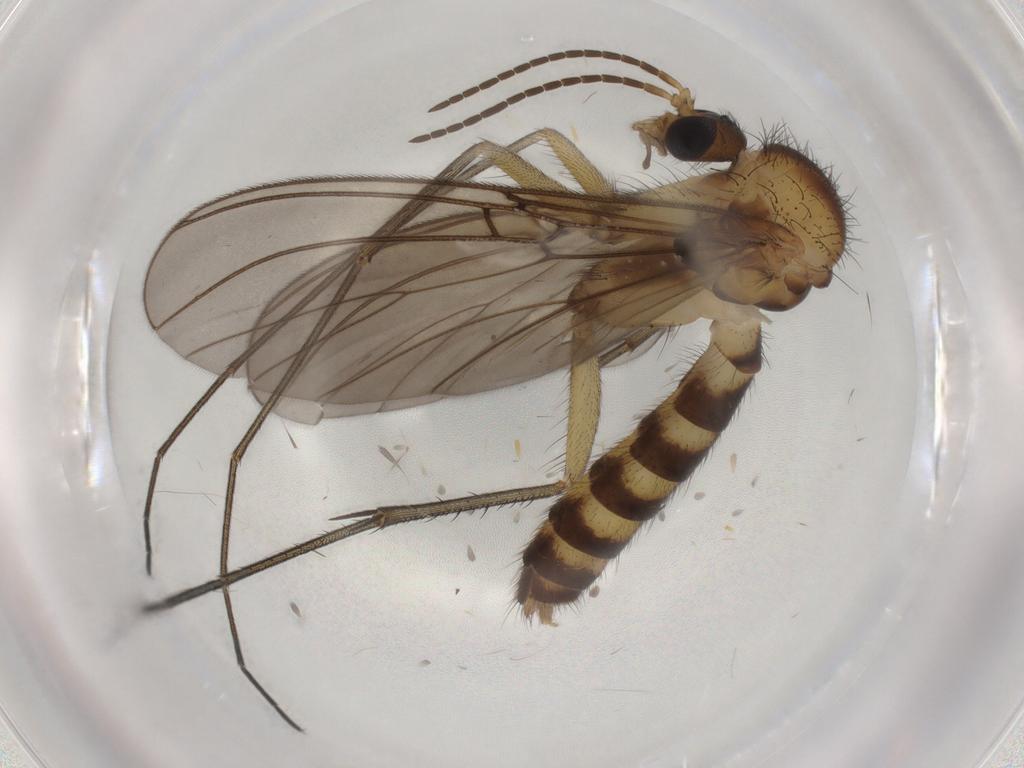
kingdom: Animalia
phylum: Arthropoda
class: Insecta
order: Diptera
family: Mycetophilidae
